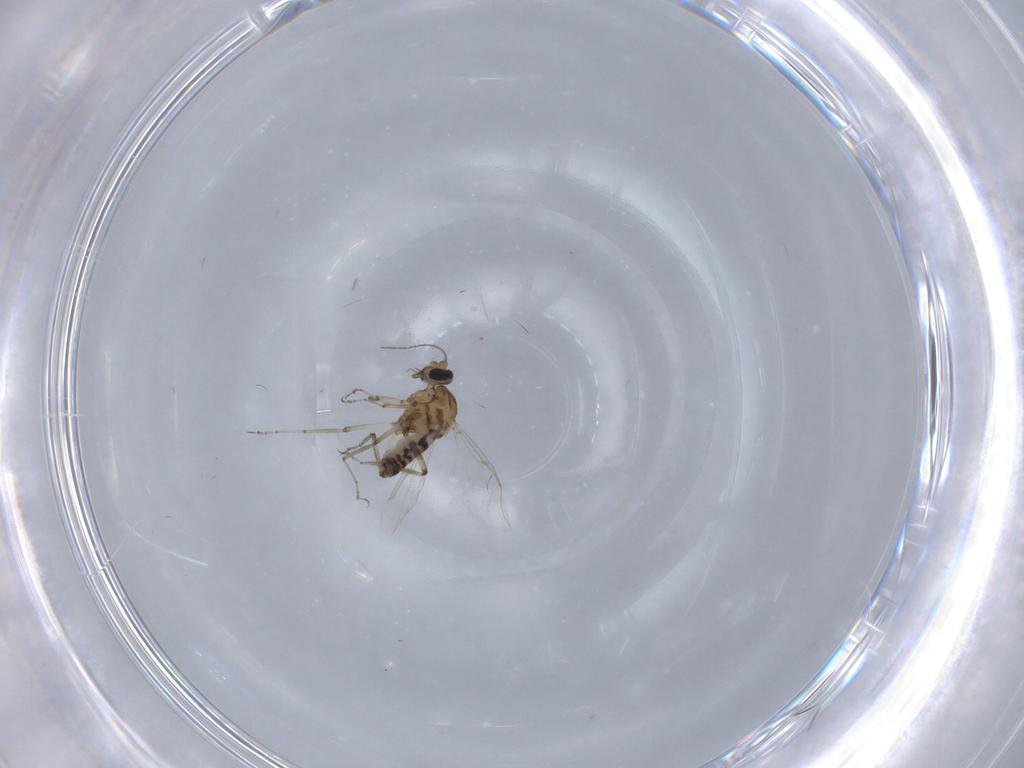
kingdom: Animalia
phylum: Arthropoda
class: Insecta
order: Diptera
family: Ceratopogonidae
